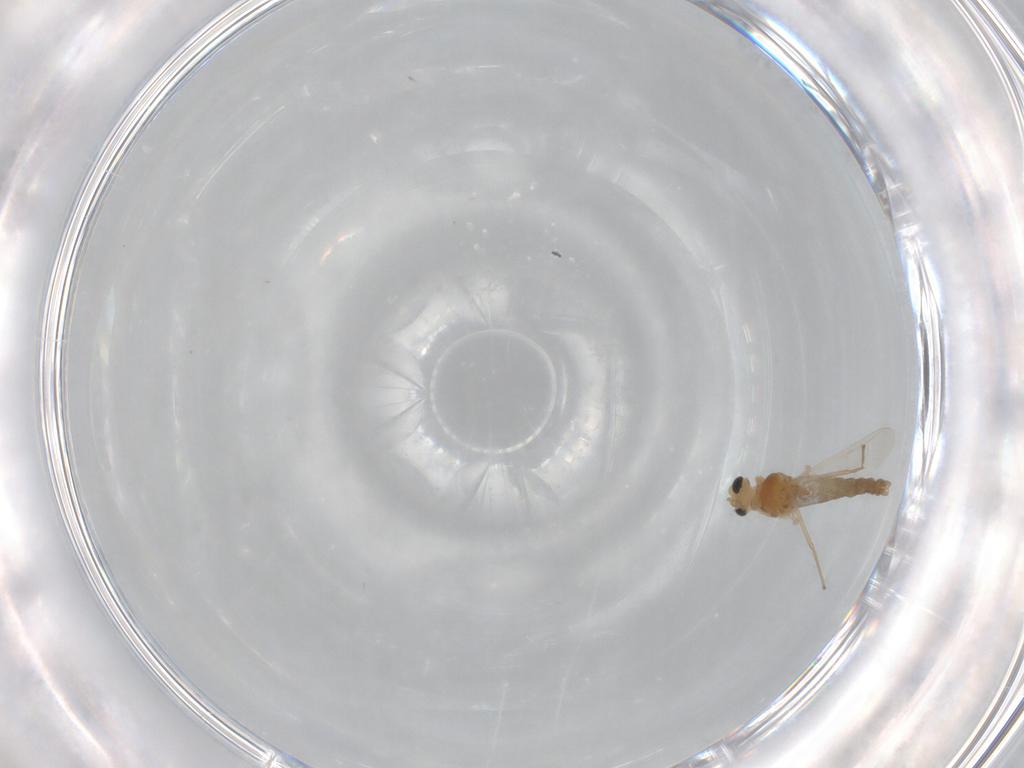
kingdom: Animalia
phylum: Arthropoda
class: Insecta
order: Diptera
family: Chironomidae
